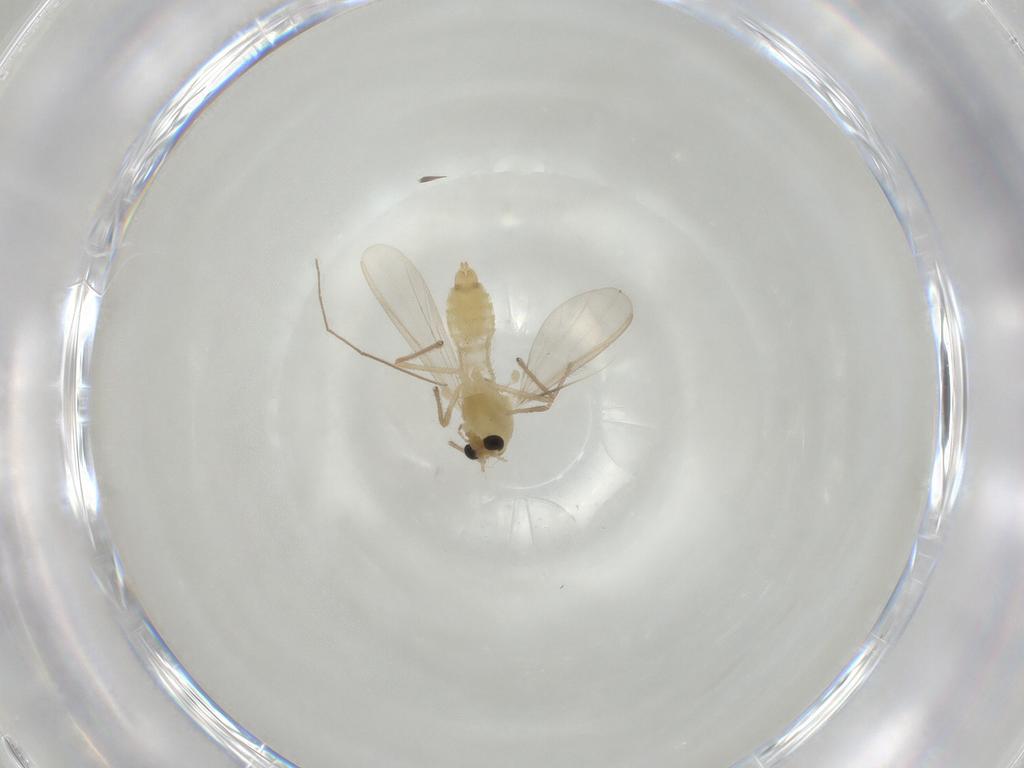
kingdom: Animalia
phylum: Arthropoda
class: Insecta
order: Diptera
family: Chironomidae
